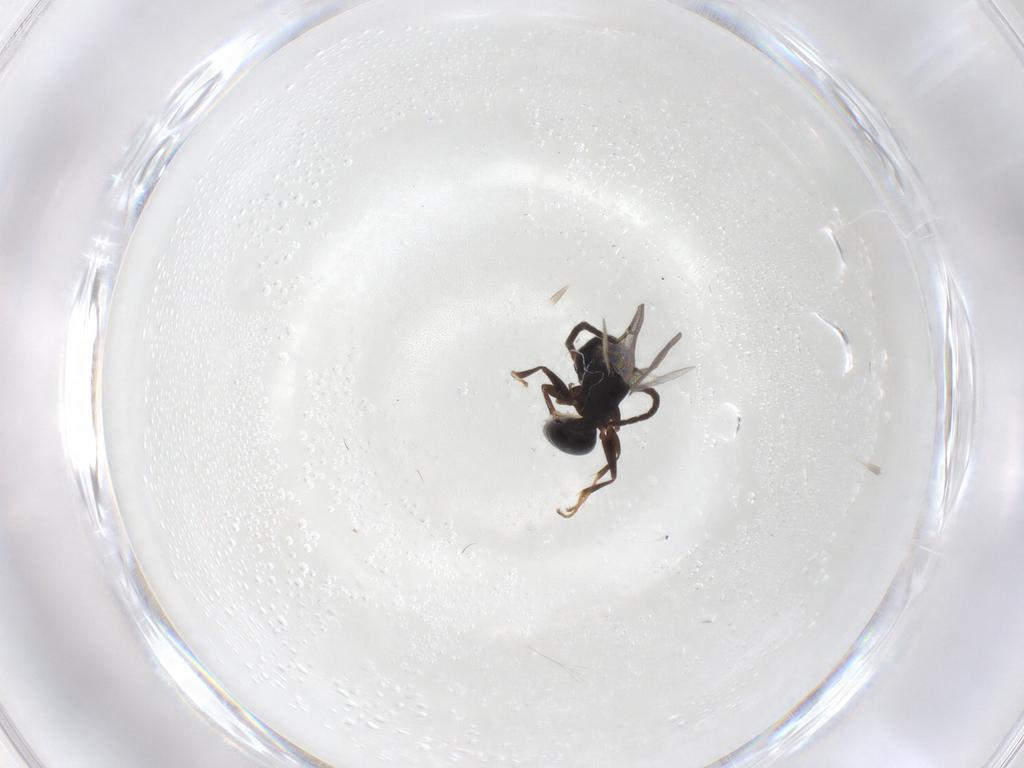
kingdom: Animalia
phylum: Arthropoda
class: Insecta
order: Hymenoptera
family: Bethylidae
